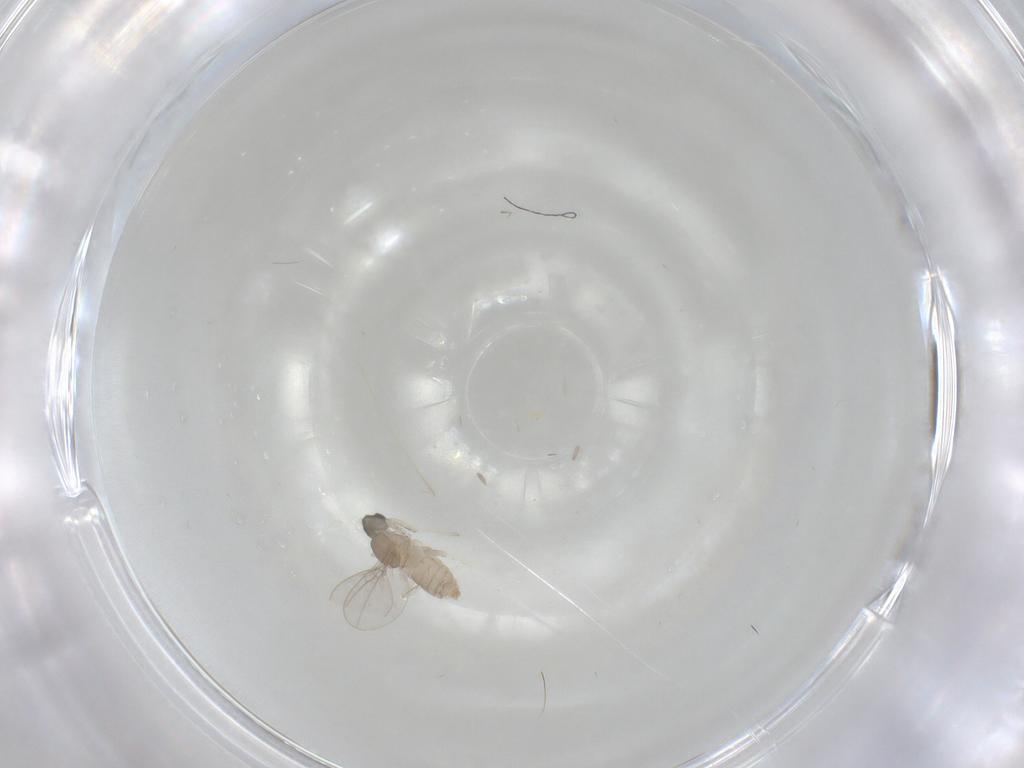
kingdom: Animalia
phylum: Arthropoda
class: Insecta
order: Diptera
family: Cecidomyiidae
